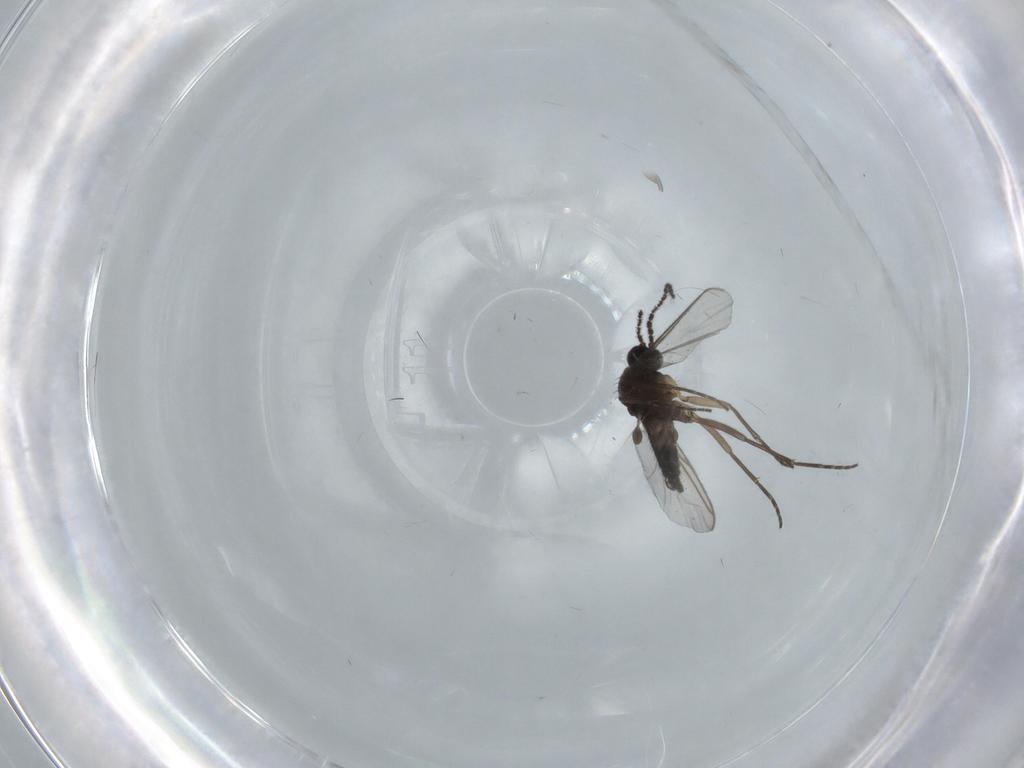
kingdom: Animalia
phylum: Arthropoda
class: Insecta
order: Diptera
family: Sciaridae
